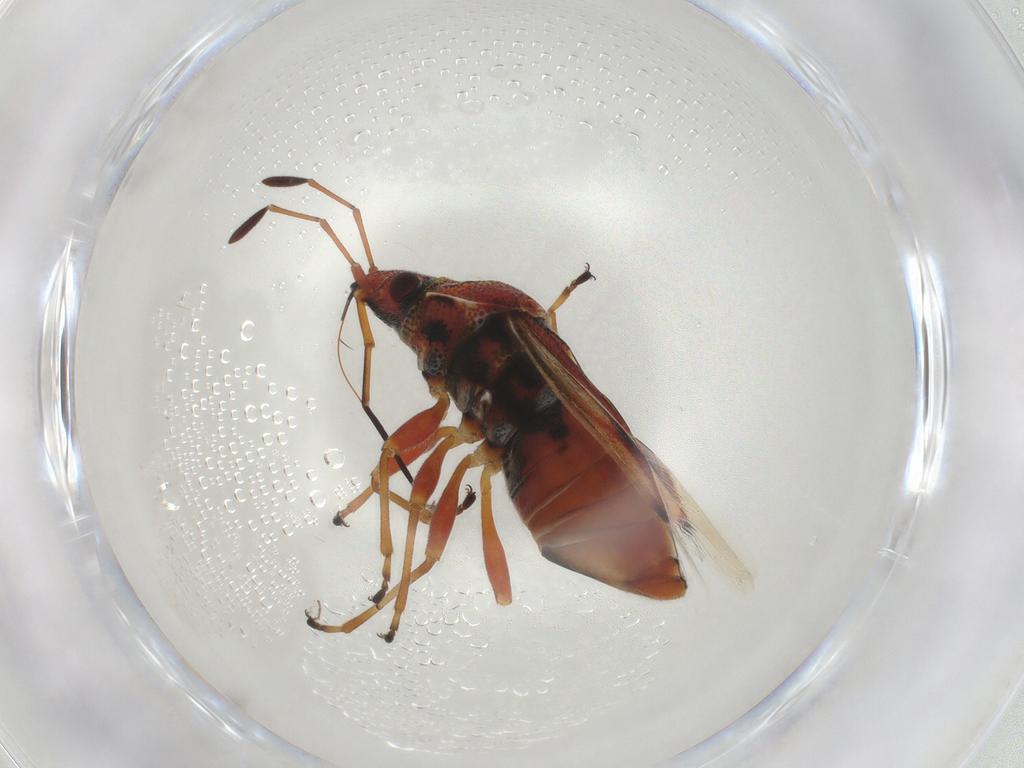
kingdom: Animalia
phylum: Arthropoda
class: Insecta
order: Hemiptera
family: Lygaeidae
